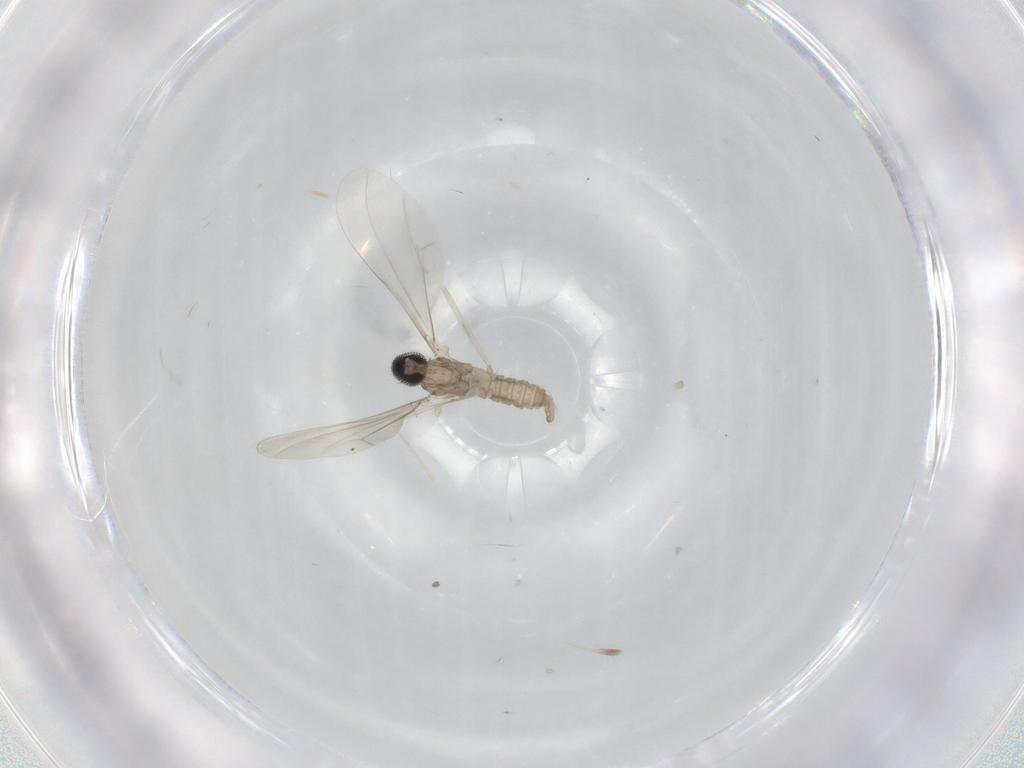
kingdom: Animalia
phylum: Arthropoda
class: Insecta
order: Diptera
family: Cecidomyiidae
